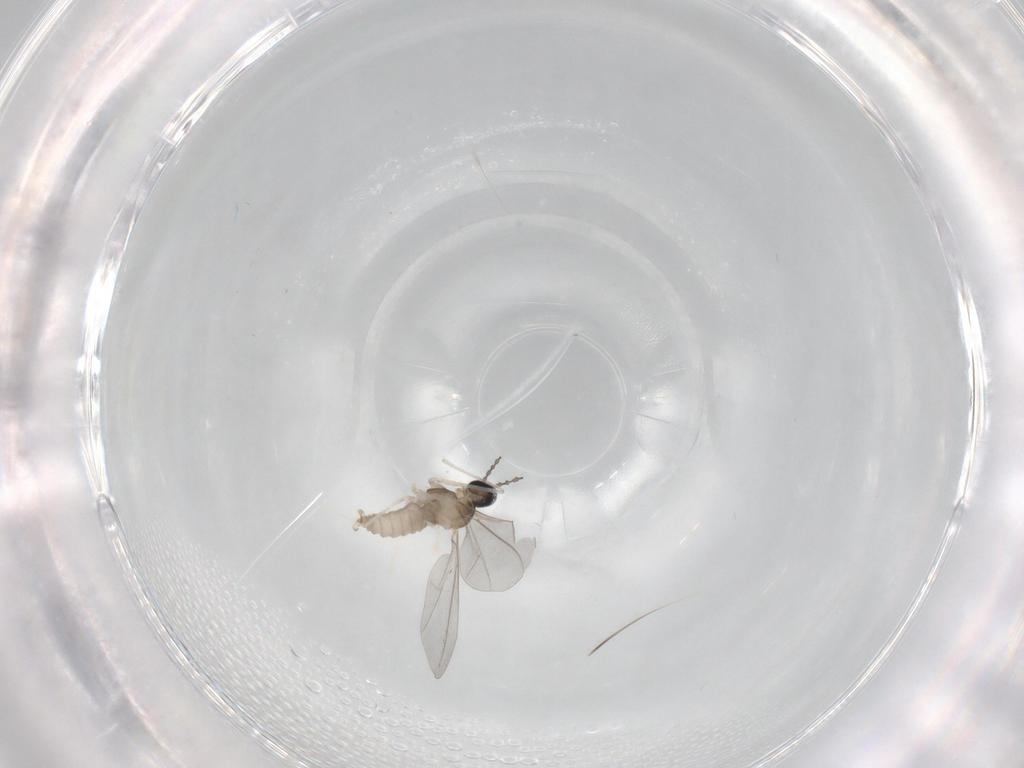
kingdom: Animalia
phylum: Arthropoda
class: Insecta
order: Diptera
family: Cecidomyiidae
